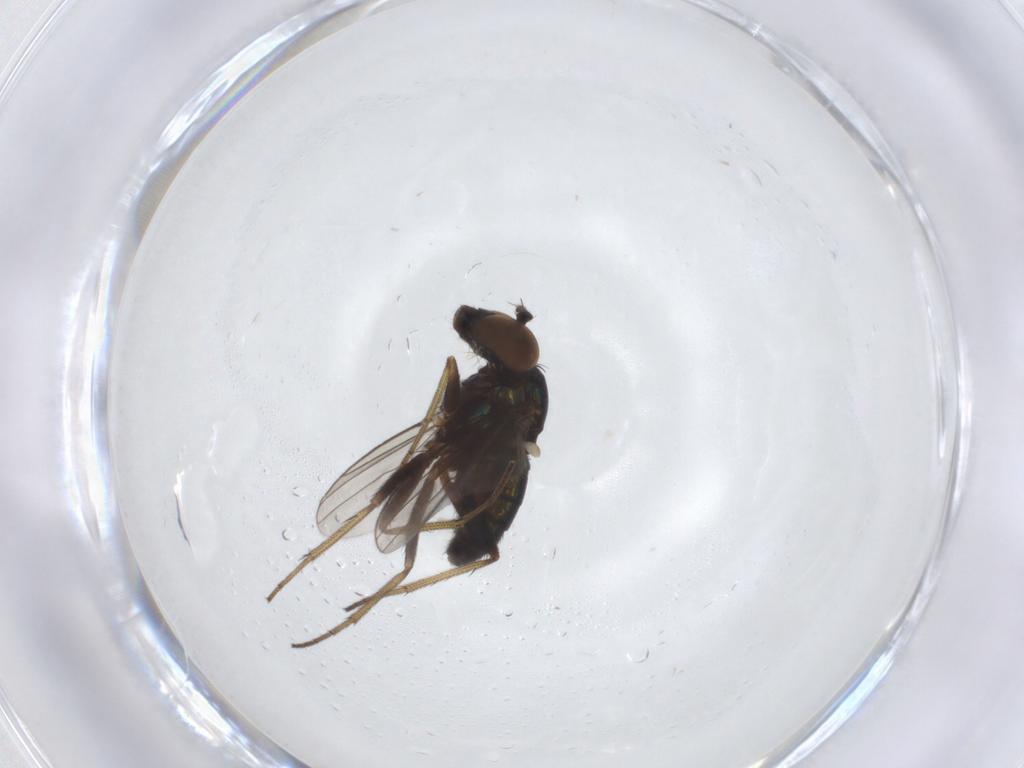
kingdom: Animalia
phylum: Arthropoda
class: Insecta
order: Diptera
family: Dolichopodidae
